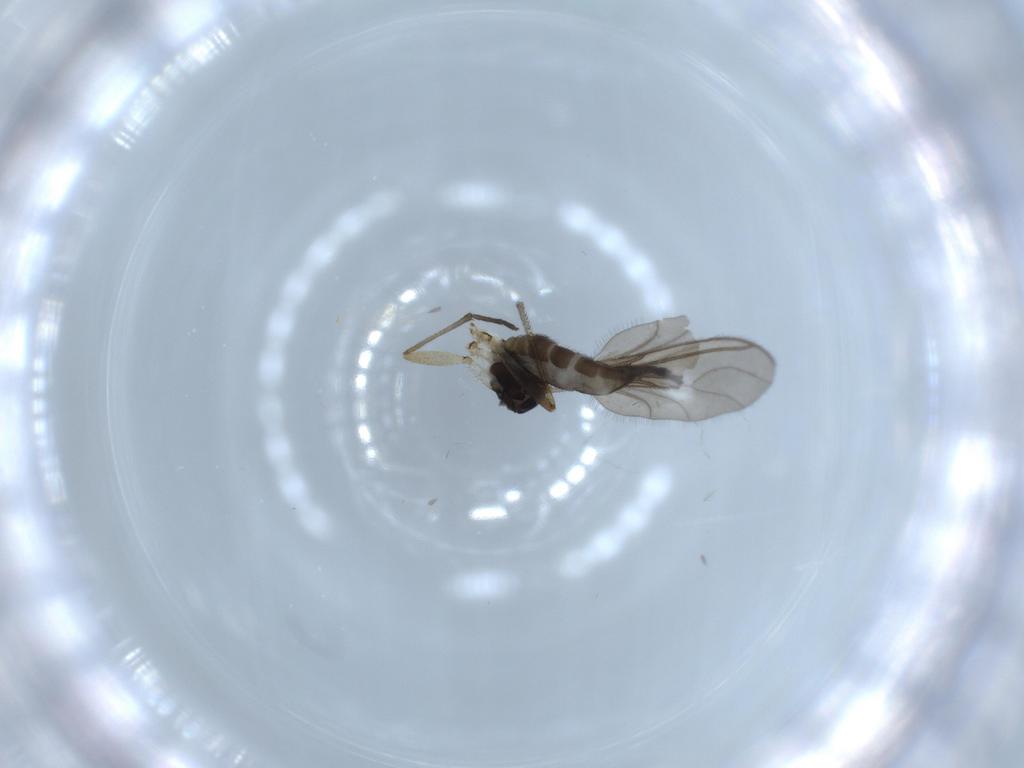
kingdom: Animalia
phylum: Arthropoda
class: Insecta
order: Diptera
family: Sciaridae
